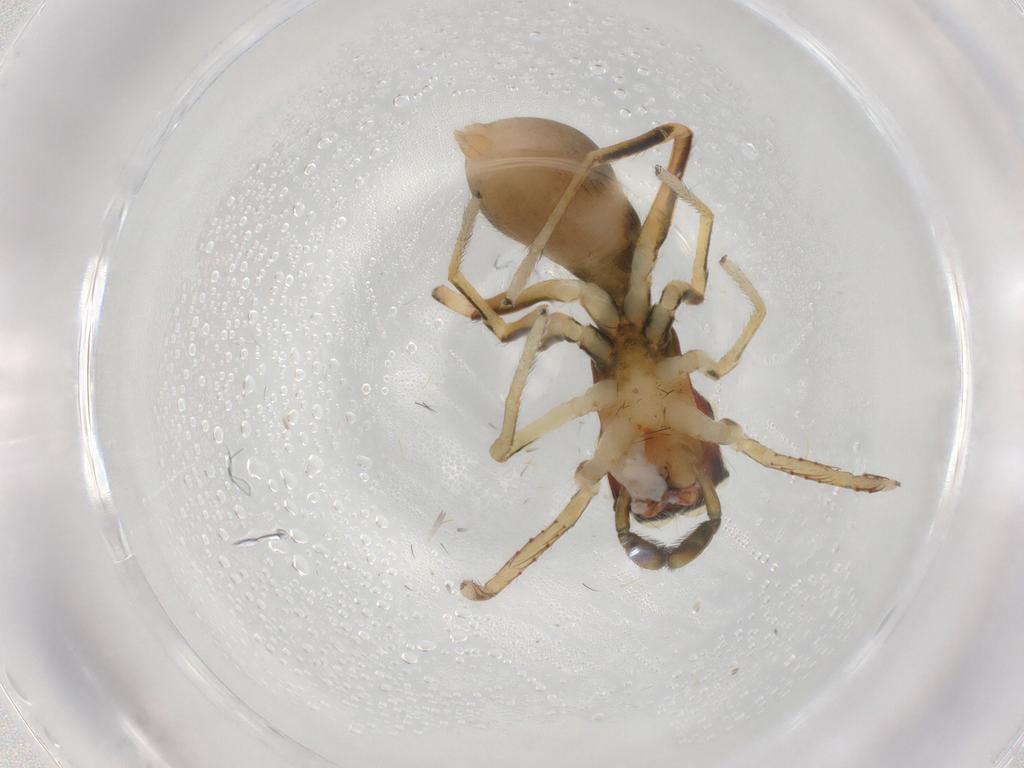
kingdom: Animalia
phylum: Arthropoda
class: Arachnida
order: Araneae
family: Salticidae
